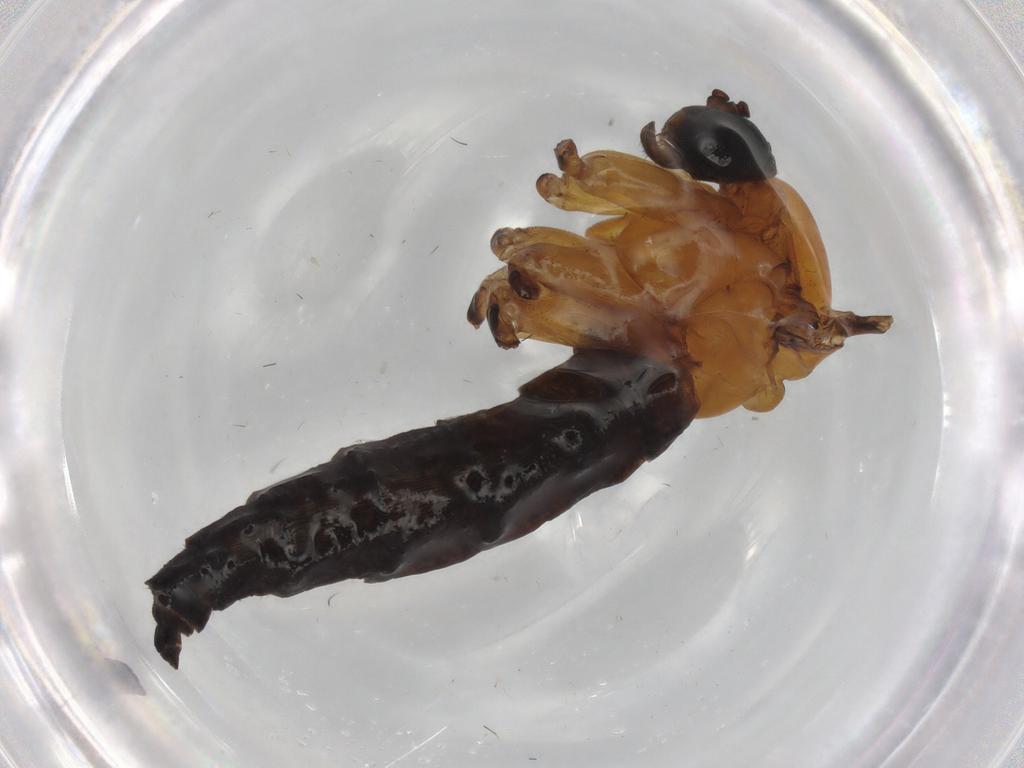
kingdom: Animalia
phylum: Arthropoda
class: Insecta
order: Diptera
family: Sciaridae
